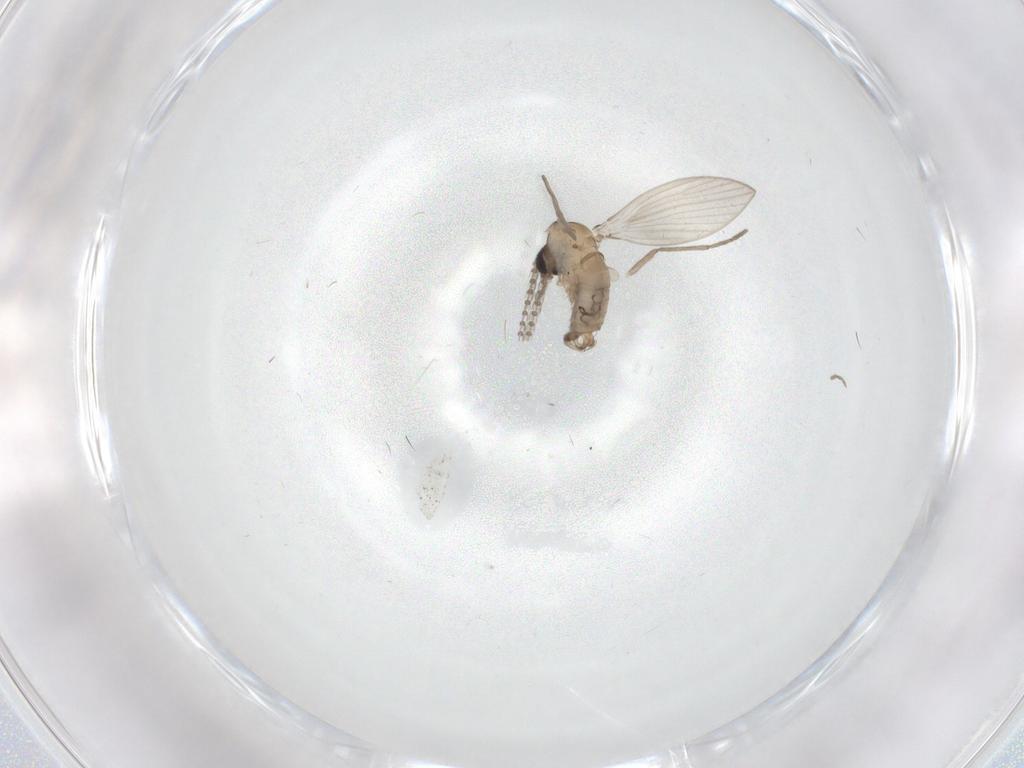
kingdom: Animalia
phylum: Arthropoda
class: Insecta
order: Diptera
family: Psychodidae
